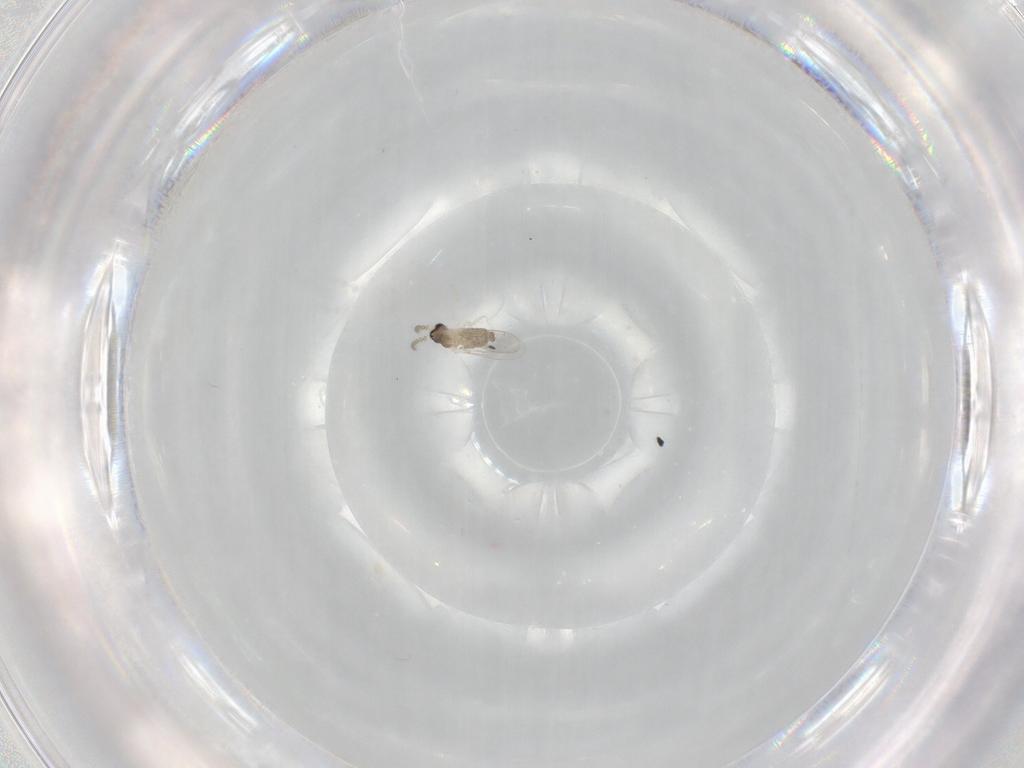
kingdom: Animalia
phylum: Arthropoda
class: Insecta
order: Diptera
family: Cecidomyiidae
